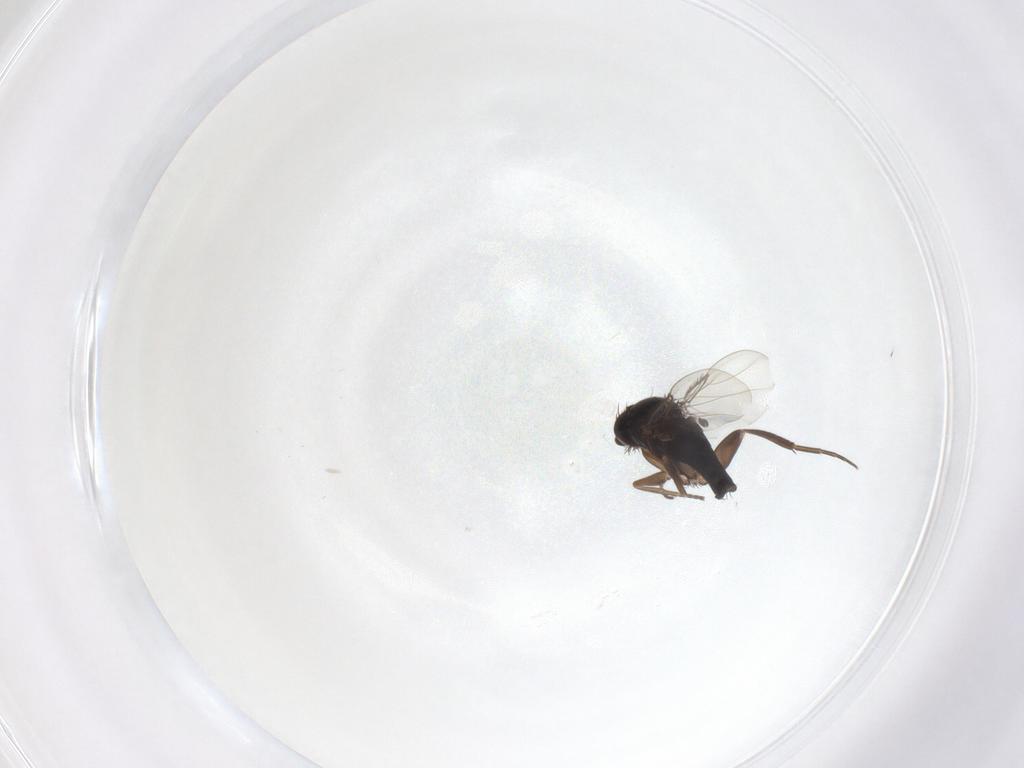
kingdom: Animalia
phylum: Arthropoda
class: Insecta
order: Diptera
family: Phoridae
